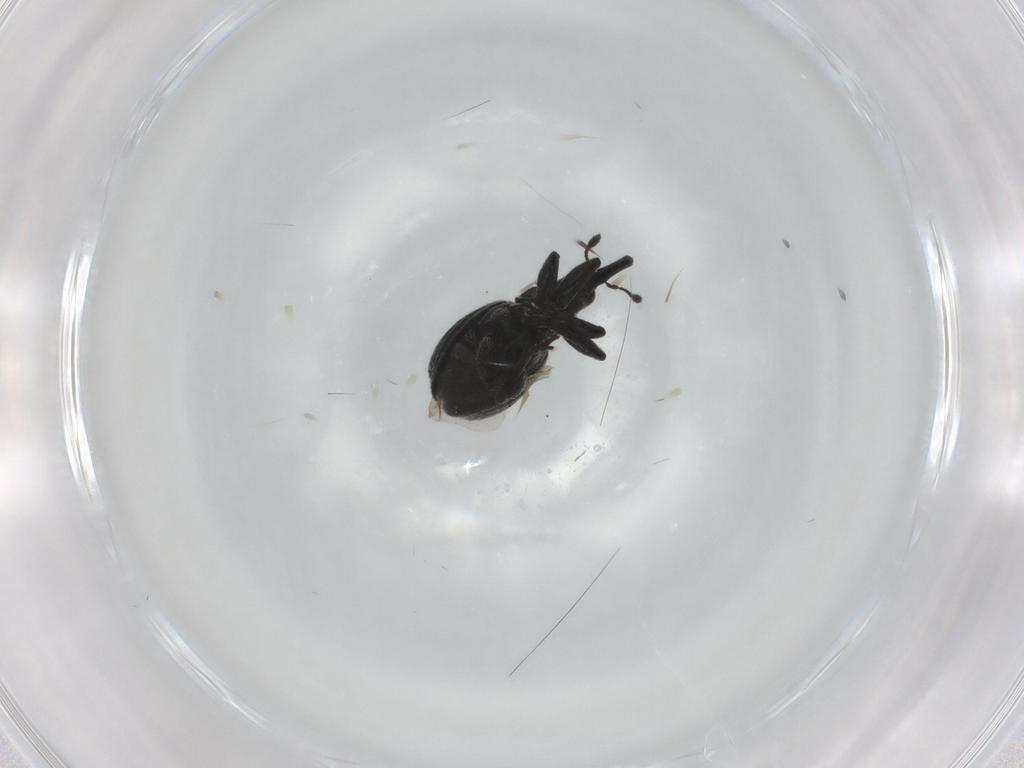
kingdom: Animalia
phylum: Arthropoda
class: Insecta
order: Coleoptera
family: Brentidae
